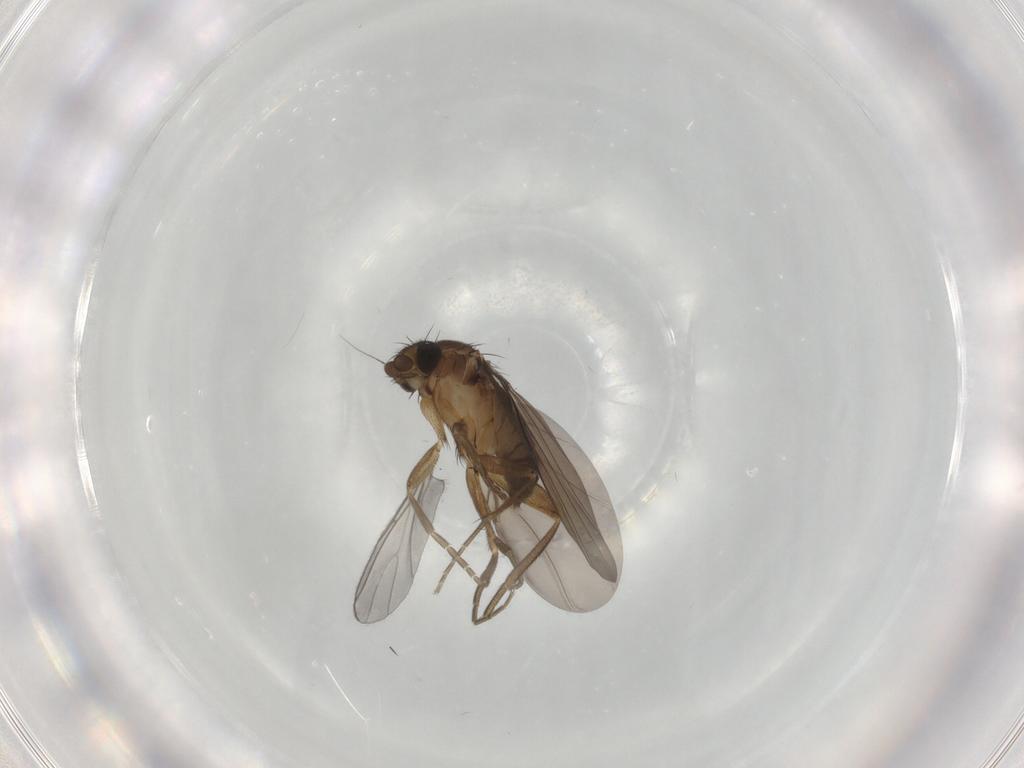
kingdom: Animalia
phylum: Arthropoda
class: Insecta
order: Diptera
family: Phoridae
